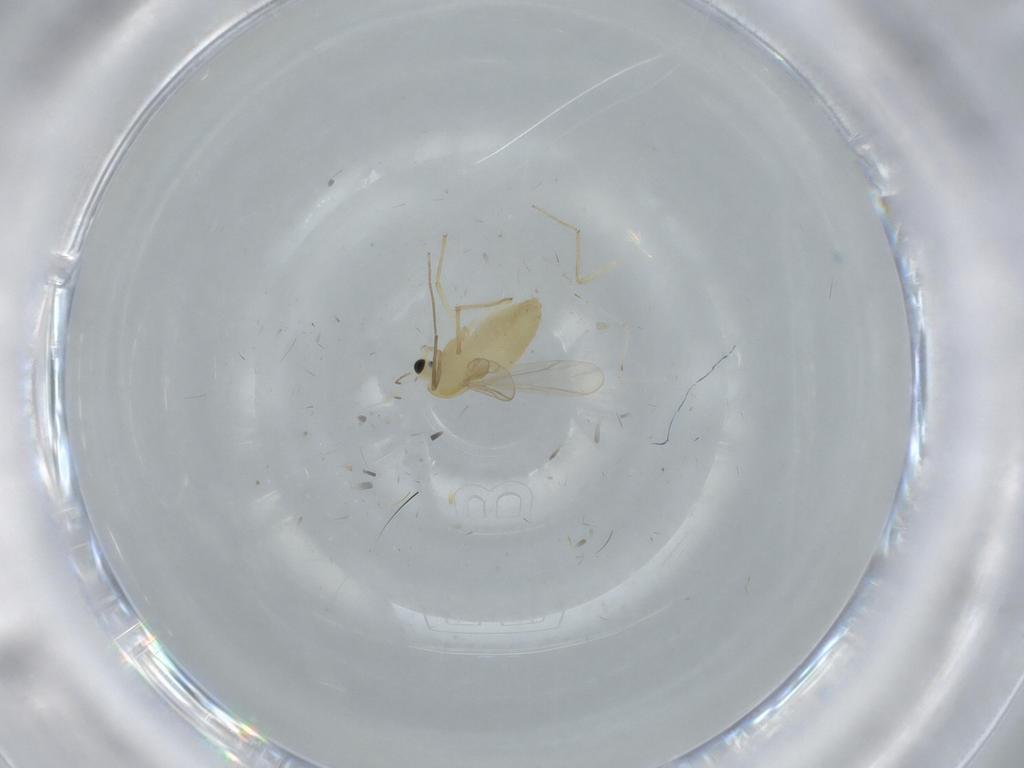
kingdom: Animalia
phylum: Arthropoda
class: Insecta
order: Diptera
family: Chironomidae
